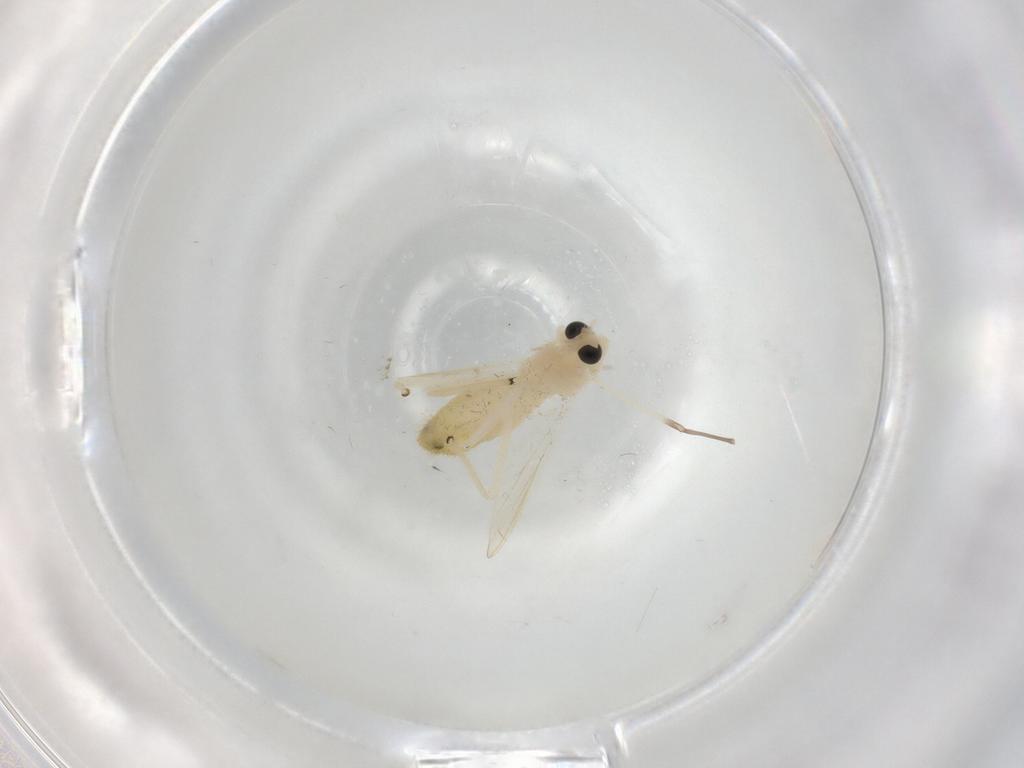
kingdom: Animalia
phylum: Arthropoda
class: Insecta
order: Diptera
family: Chironomidae
